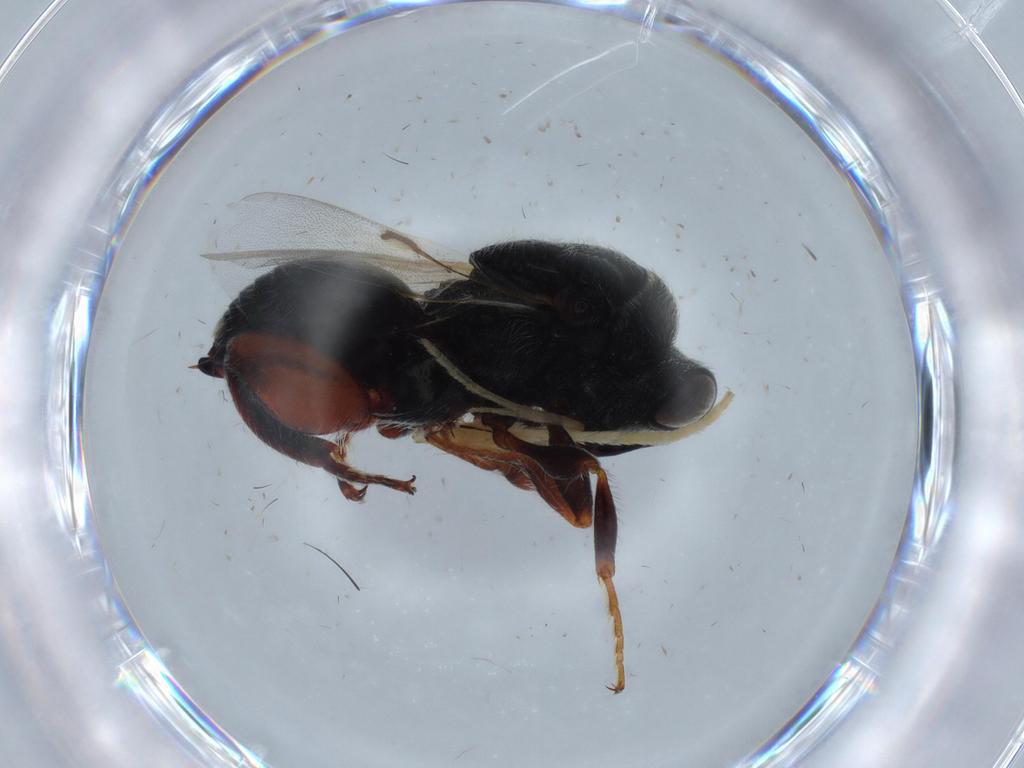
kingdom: Animalia
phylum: Arthropoda
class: Insecta
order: Hymenoptera
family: Chalcididae
